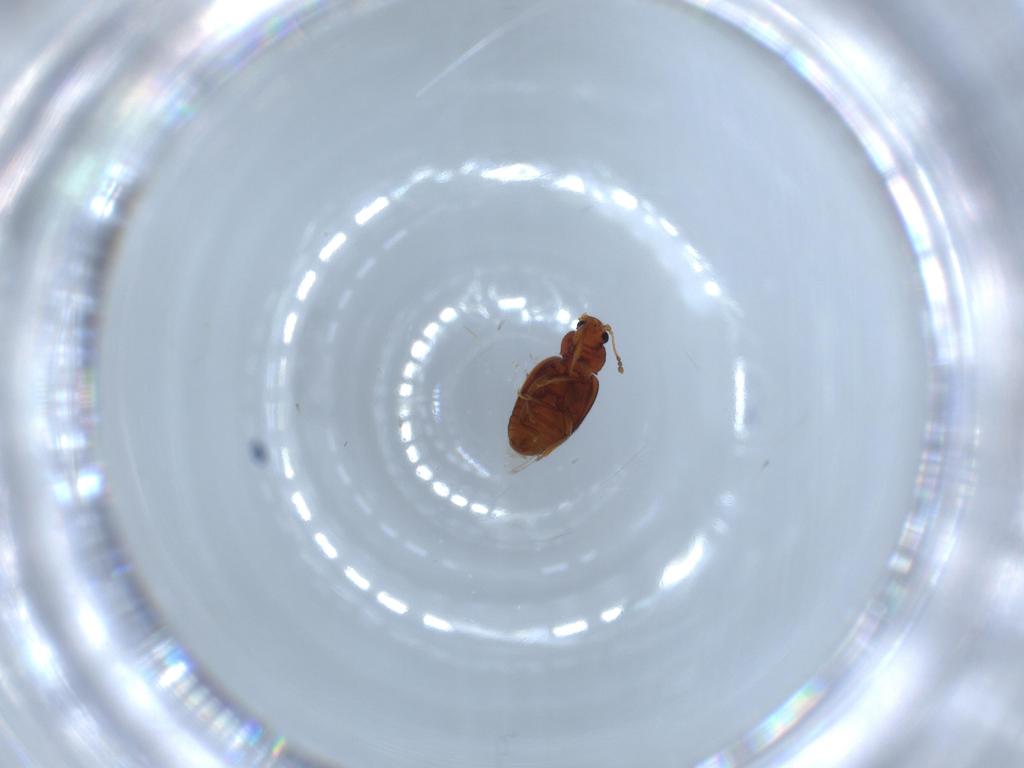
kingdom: Animalia
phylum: Arthropoda
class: Insecta
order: Coleoptera
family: Latridiidae
